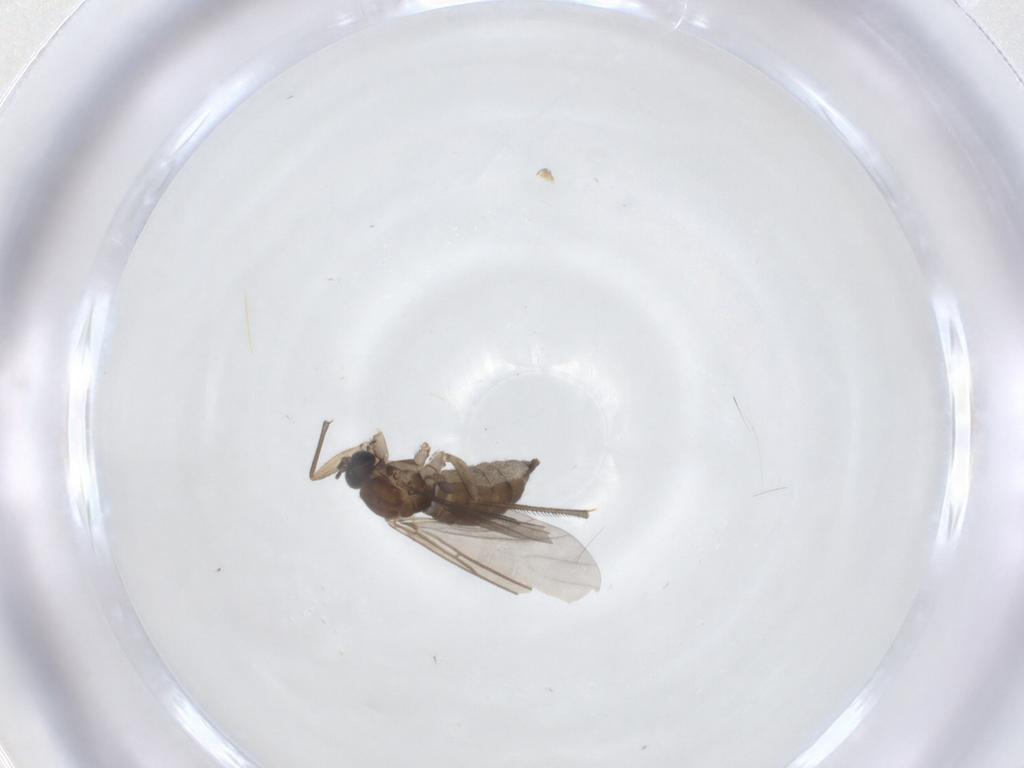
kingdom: Animalia
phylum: Arthropoda
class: Insecta
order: Diptera
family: Sciaridae
